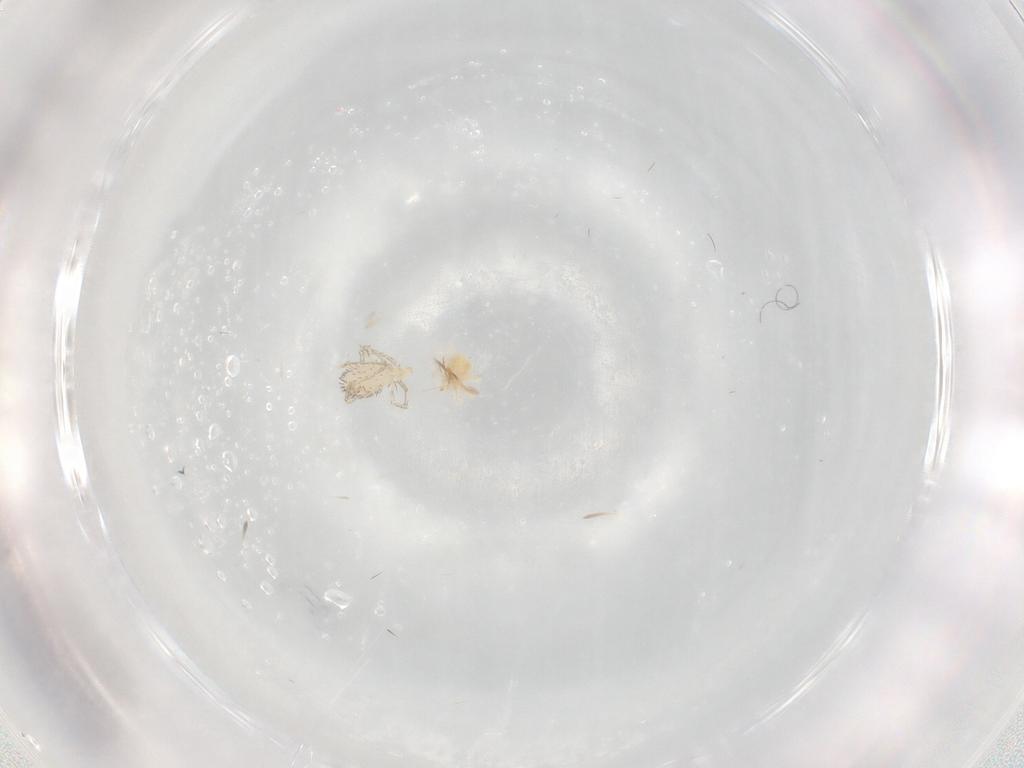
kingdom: Animalia
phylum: Arthropoda
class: Arachnida
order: Trombidiformes
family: Erythraeidae
